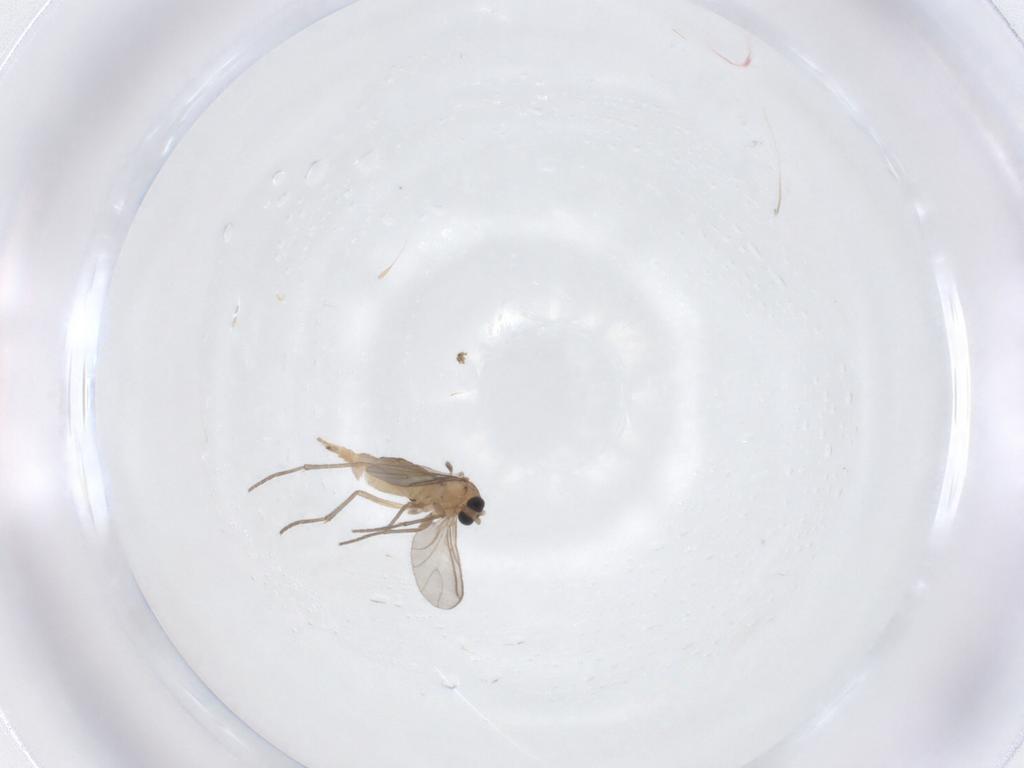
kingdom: Animalia
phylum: Arthropoda
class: Insecta
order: Diptera
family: Sciaridae
